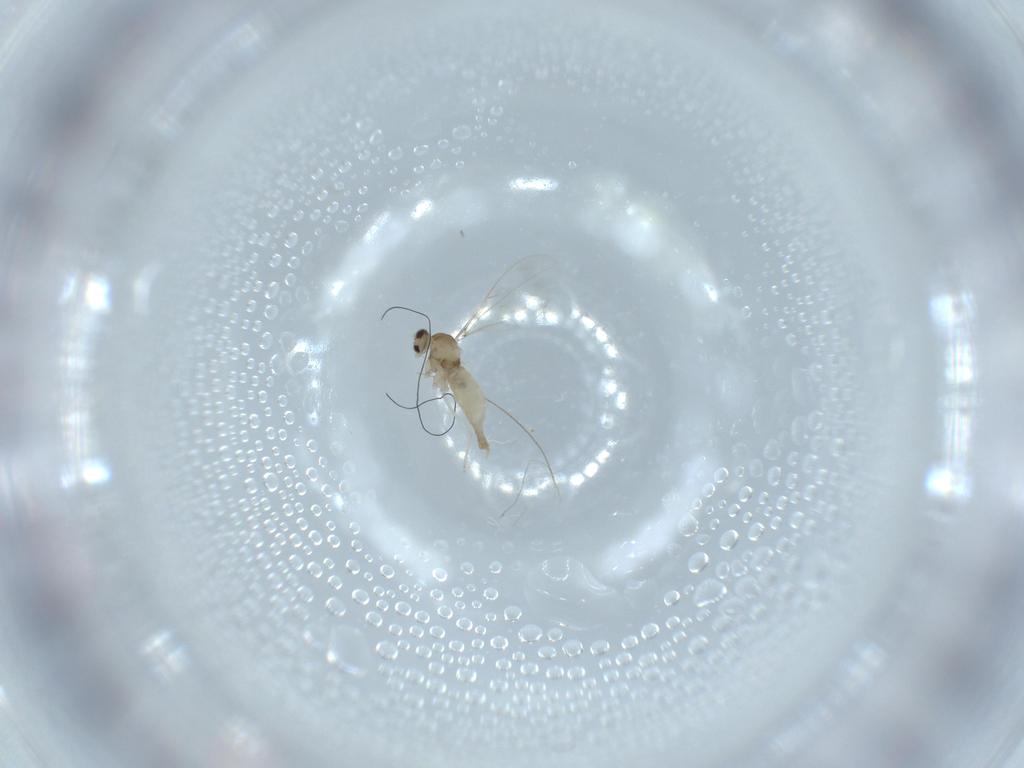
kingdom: Animalia
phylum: Arthropoda
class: Insecta
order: Diptera
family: Cecidomyiidae
